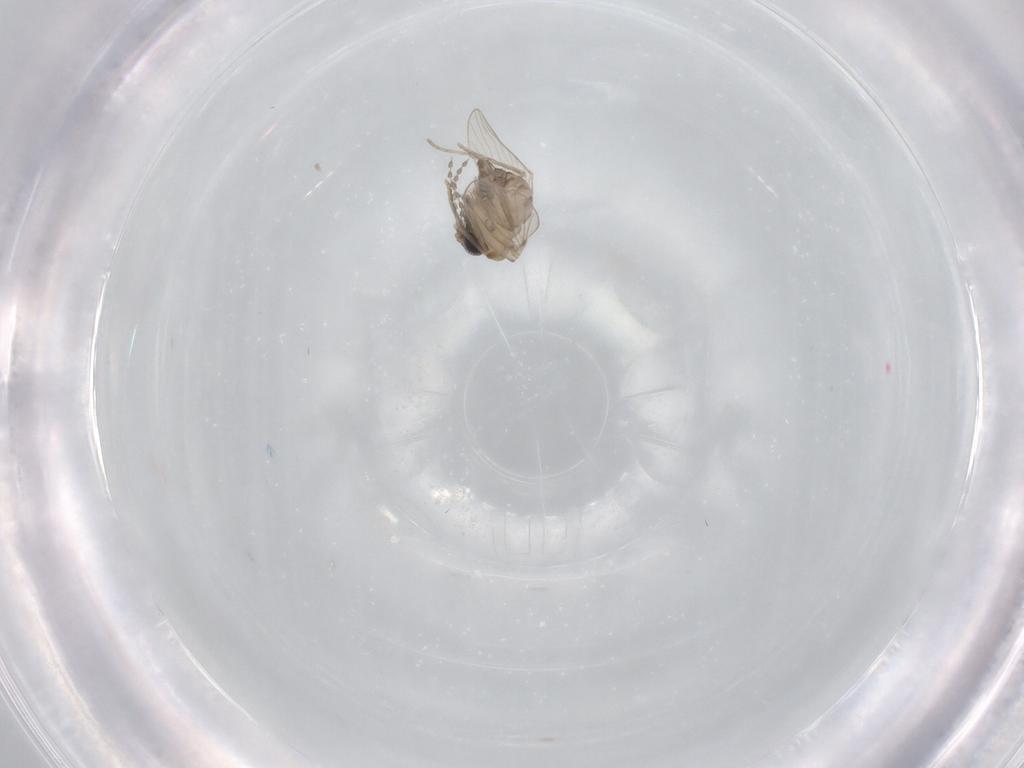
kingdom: Animalia
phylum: Arthropoda
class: Insecta
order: Diptera
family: Psychodidae
